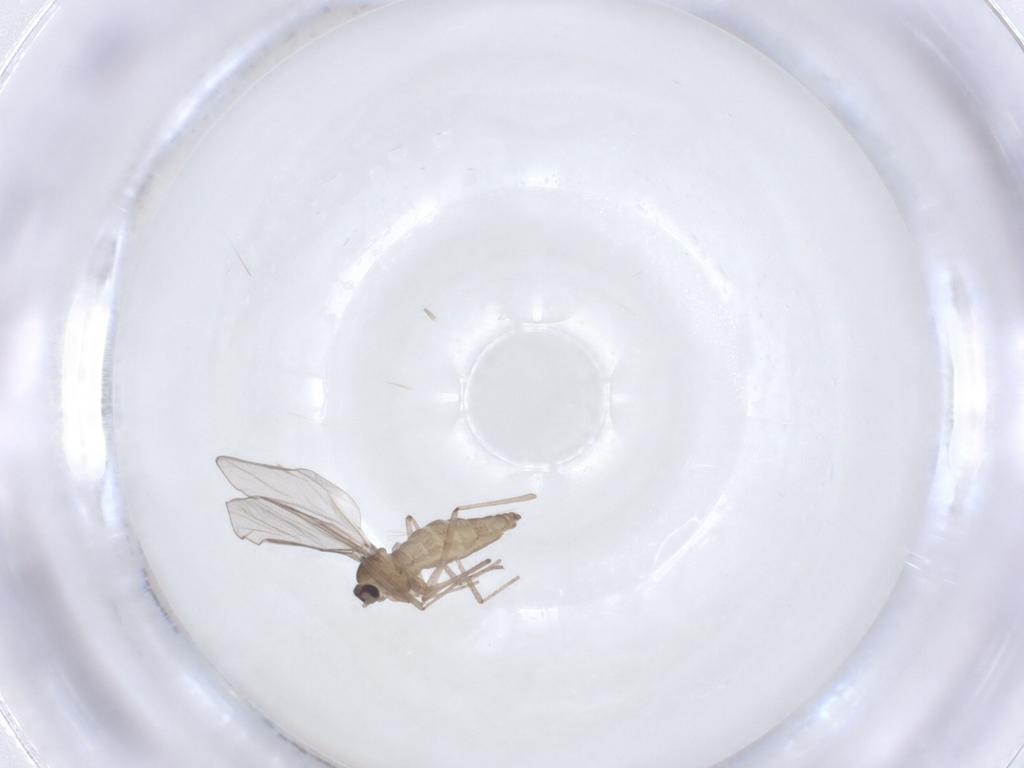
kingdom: Animalia
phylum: Arthropoda
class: Insecta
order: Diptera
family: Cecidomyiidae
